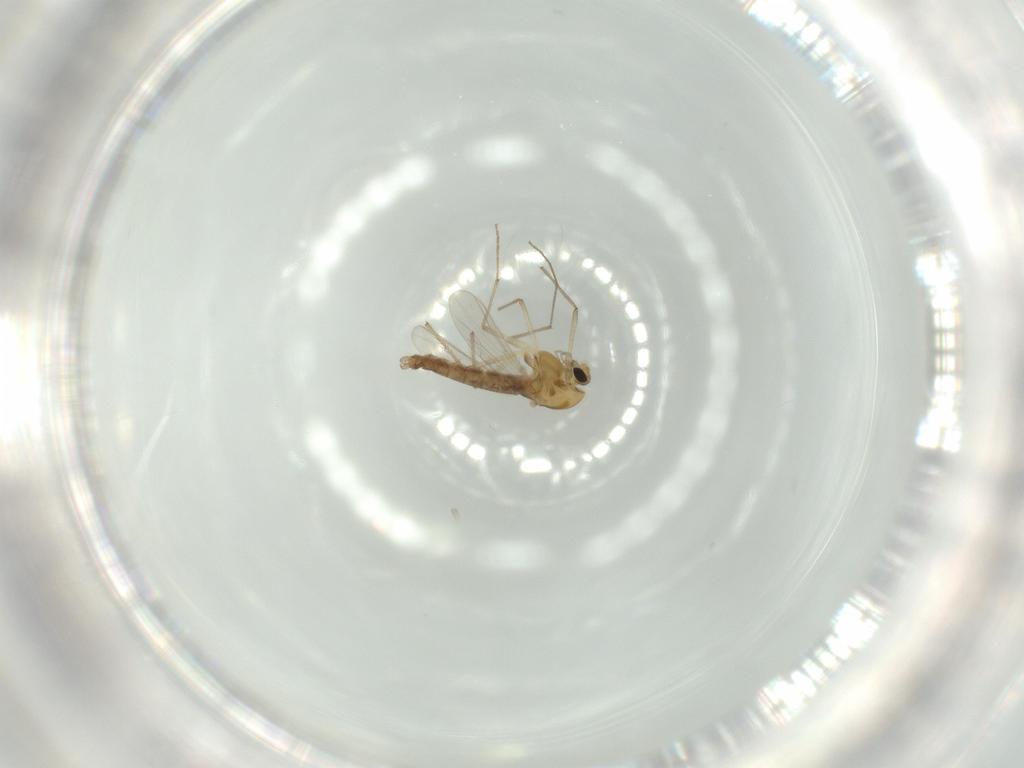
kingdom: Animalia
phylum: Arthropoda
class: Insecta
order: Diptera
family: Chironomidae
